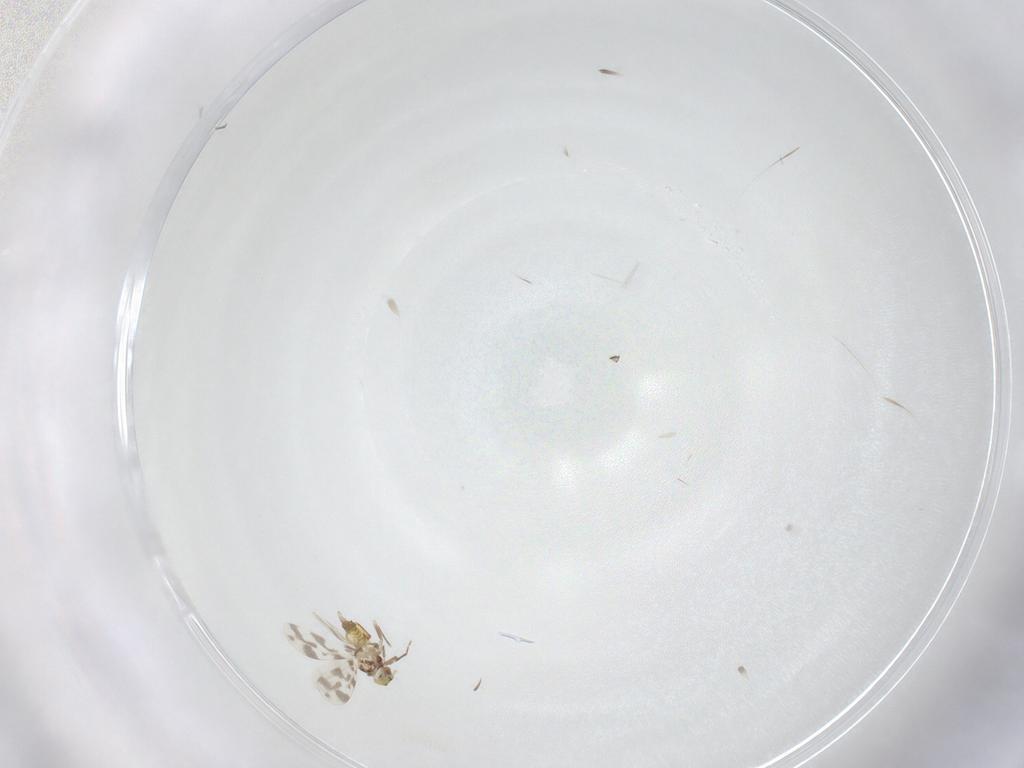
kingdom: Animalia
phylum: Arthropoda
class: Insecta
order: Hemiptera
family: Aleyrodidae
